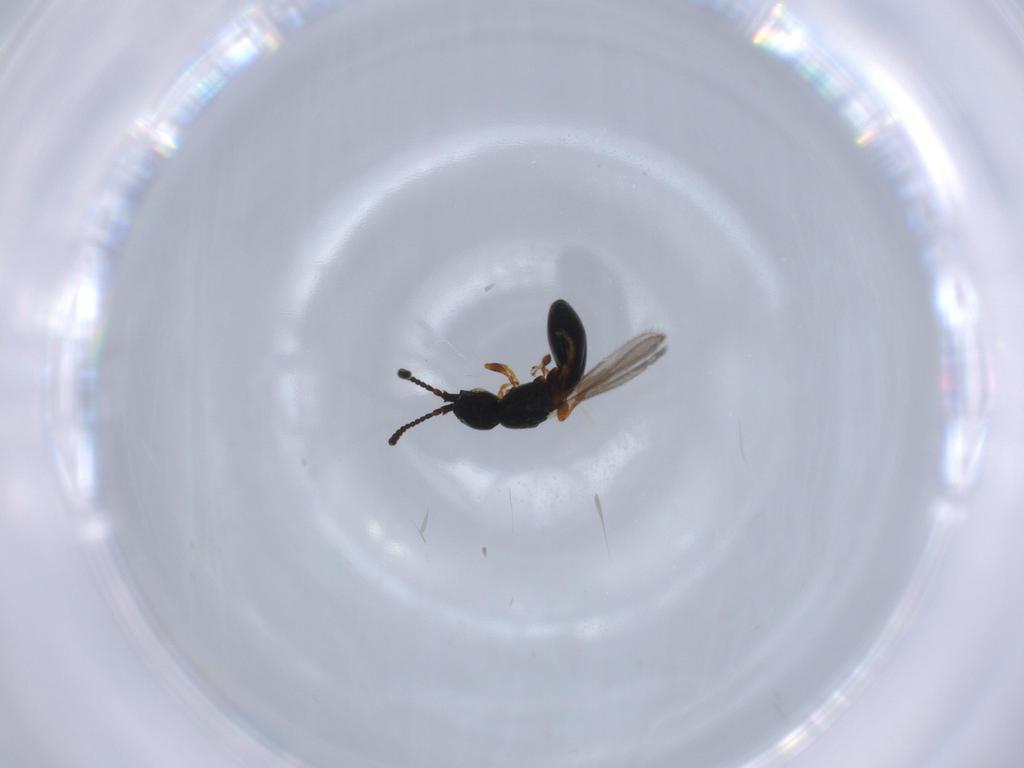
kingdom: Animalia
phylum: Arthropoda
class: Insecta
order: Hymenoptera
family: Diapriidae
